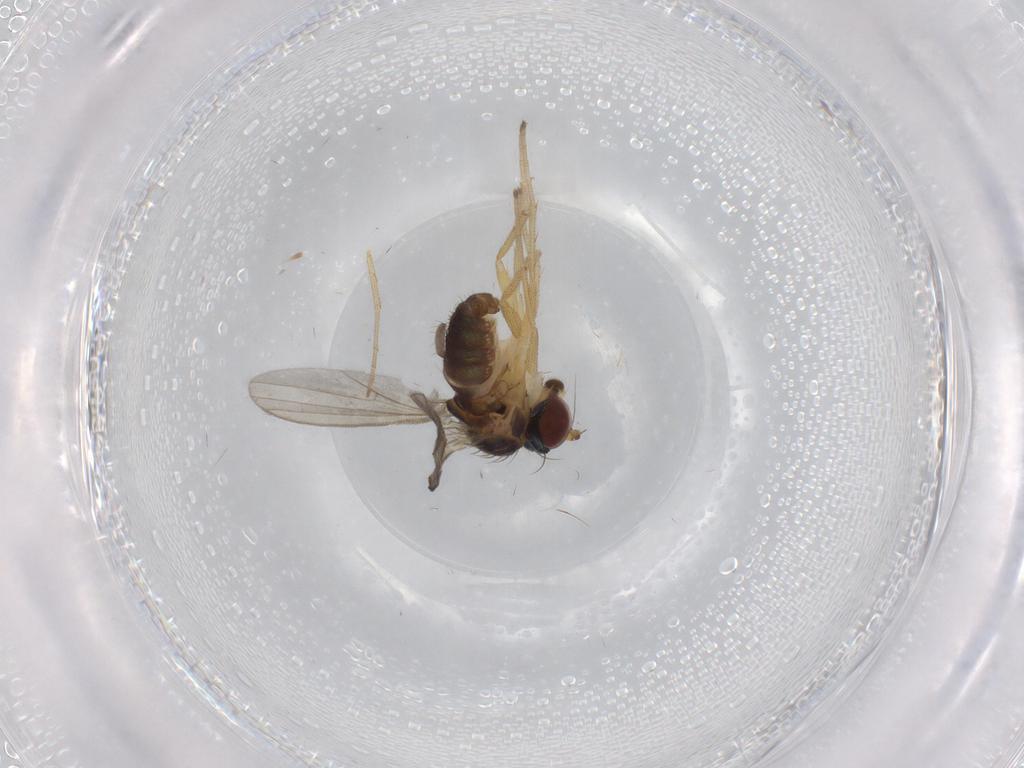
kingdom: Animalia
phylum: Arthropoda
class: Insecta
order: Diptera
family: Dolichopodidae
